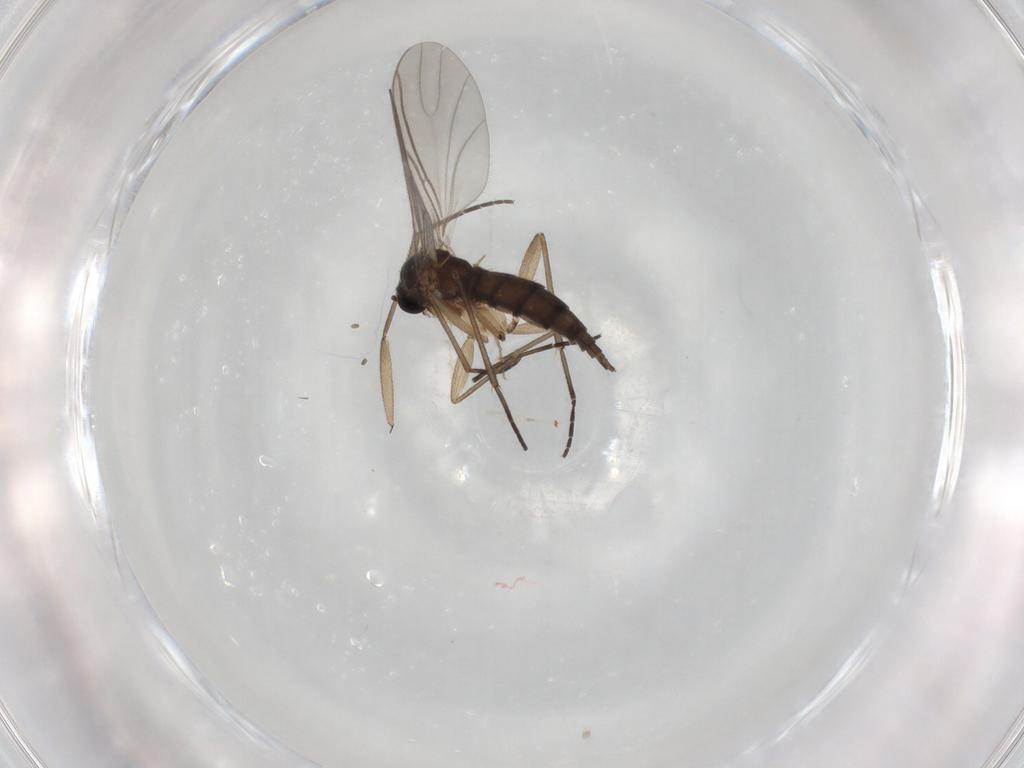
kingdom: Animalia
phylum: Arthropoda
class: Insecta
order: Diptera
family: Sciaridae
